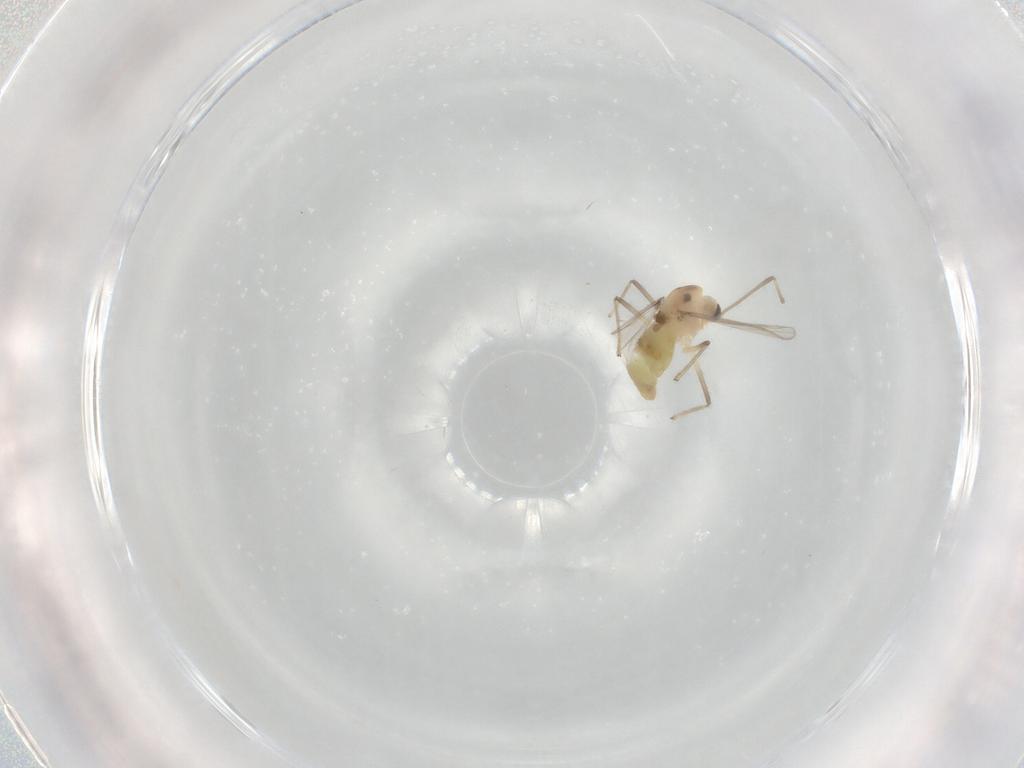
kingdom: Animalia
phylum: Arthropoda
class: Insecta
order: Diptera
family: Chironomidae
